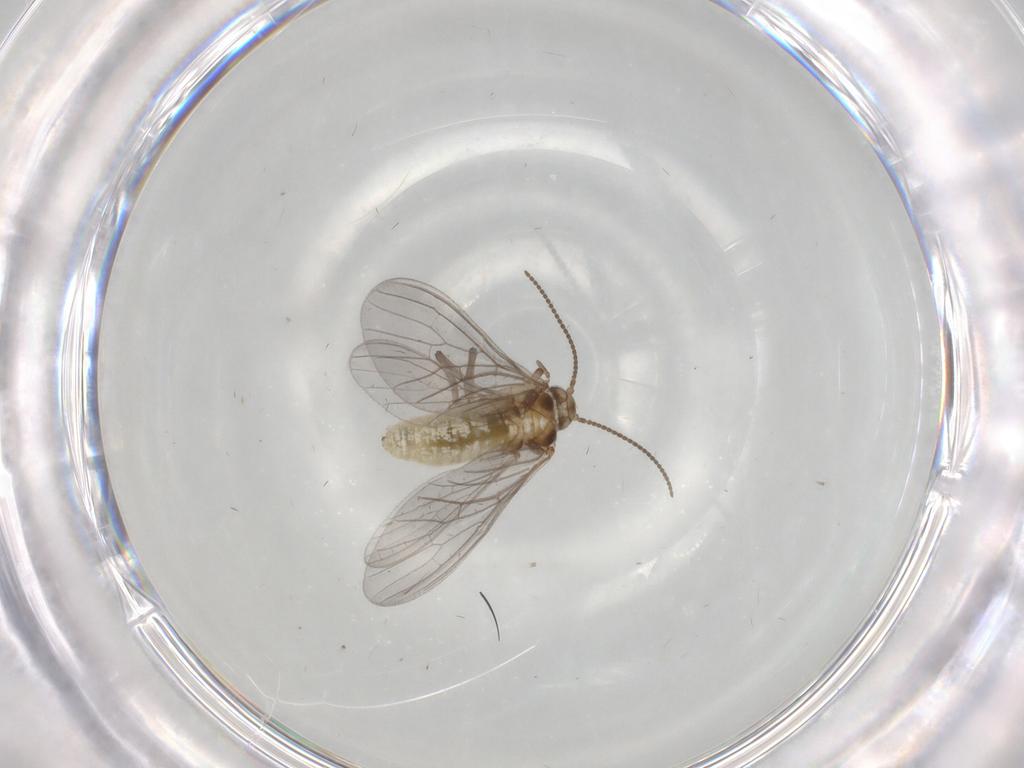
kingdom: Animalia
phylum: Arthropoda
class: Insecta
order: Neuroptera
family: Coniopterygidae
